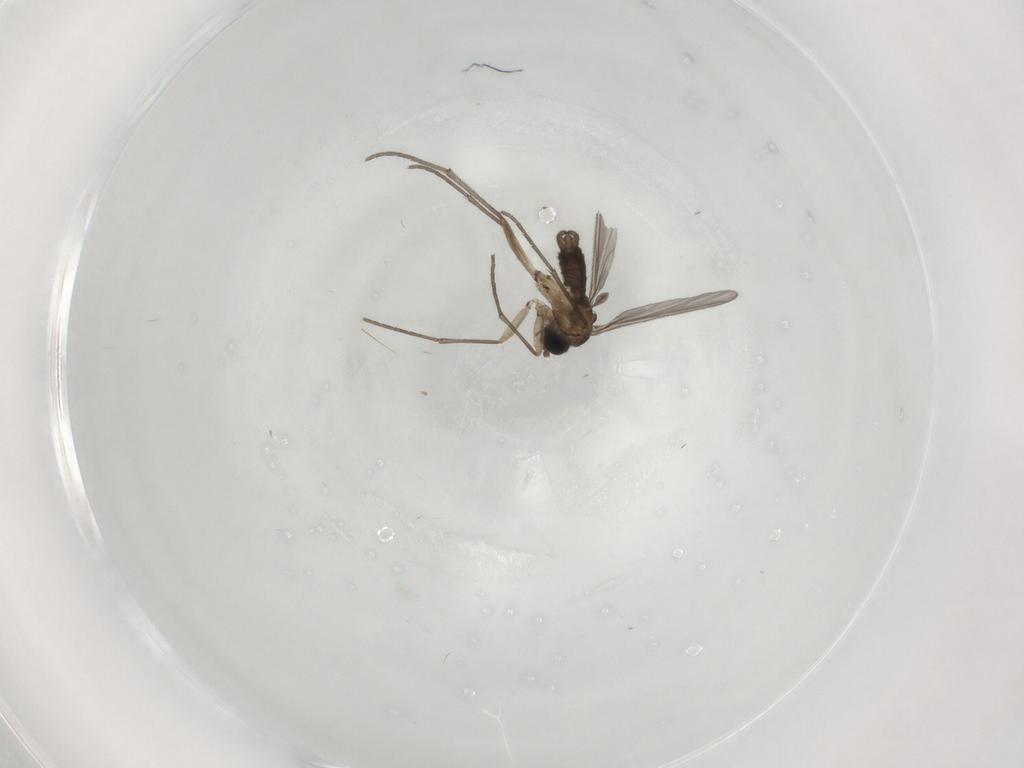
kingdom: Animalia
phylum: Arthropoda
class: Insecta
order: Diptera
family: Sciaridae
